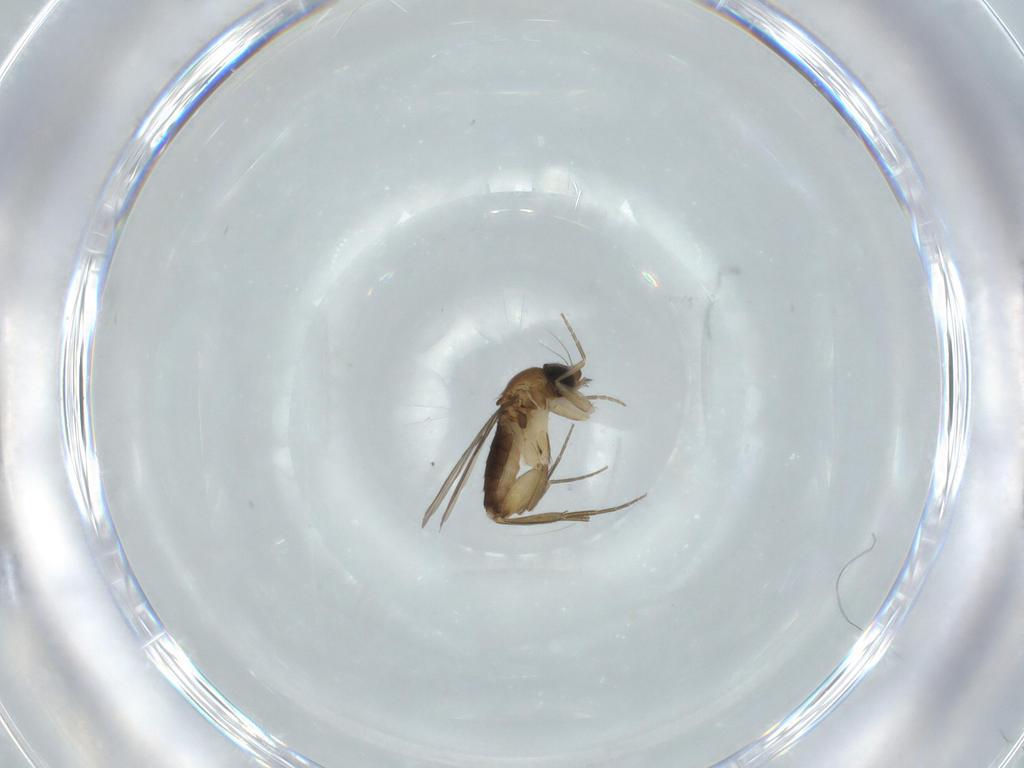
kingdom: Animalia
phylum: Arthropoda
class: Insecta
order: Diptera
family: Phoridae
